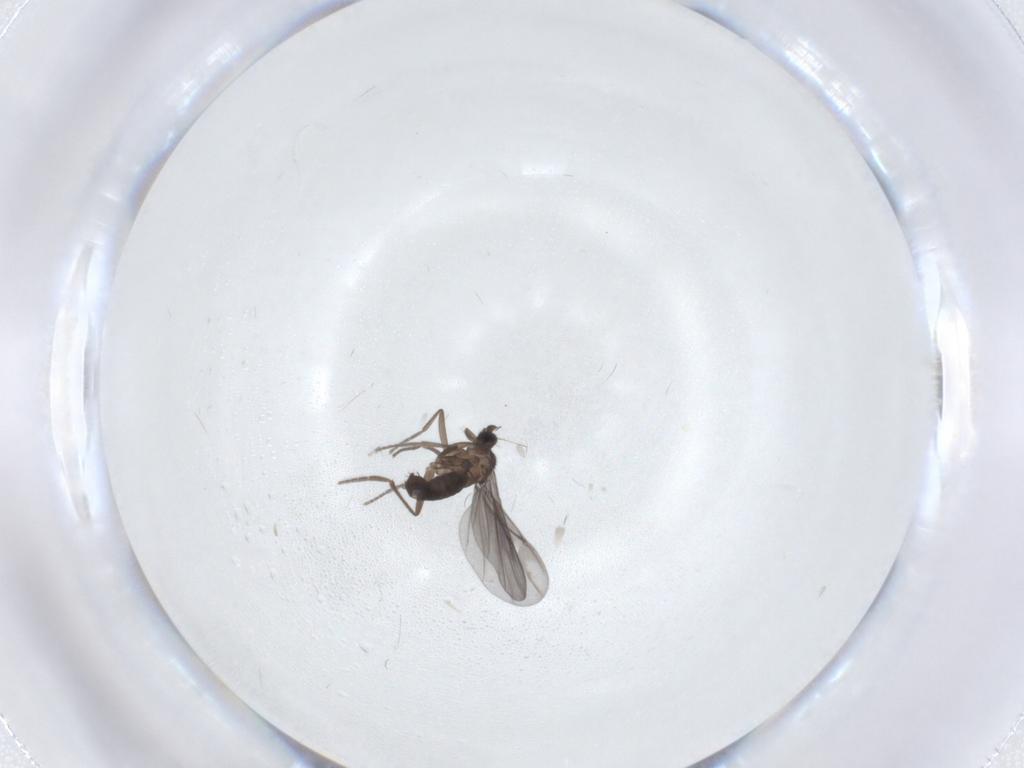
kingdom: Animalia
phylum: Arthropoda
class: Insecta
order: Diptera
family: Phoridae
